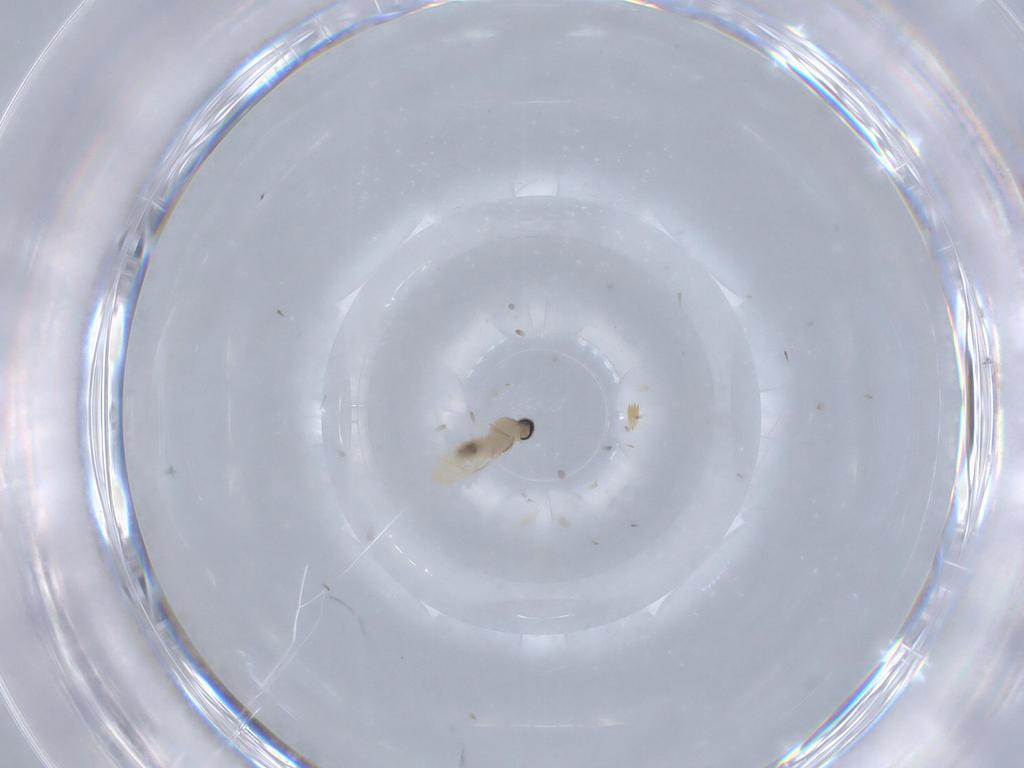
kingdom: Animalia
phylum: Arthropoda
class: Insecta
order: Diptera
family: Cecidomyiidae
